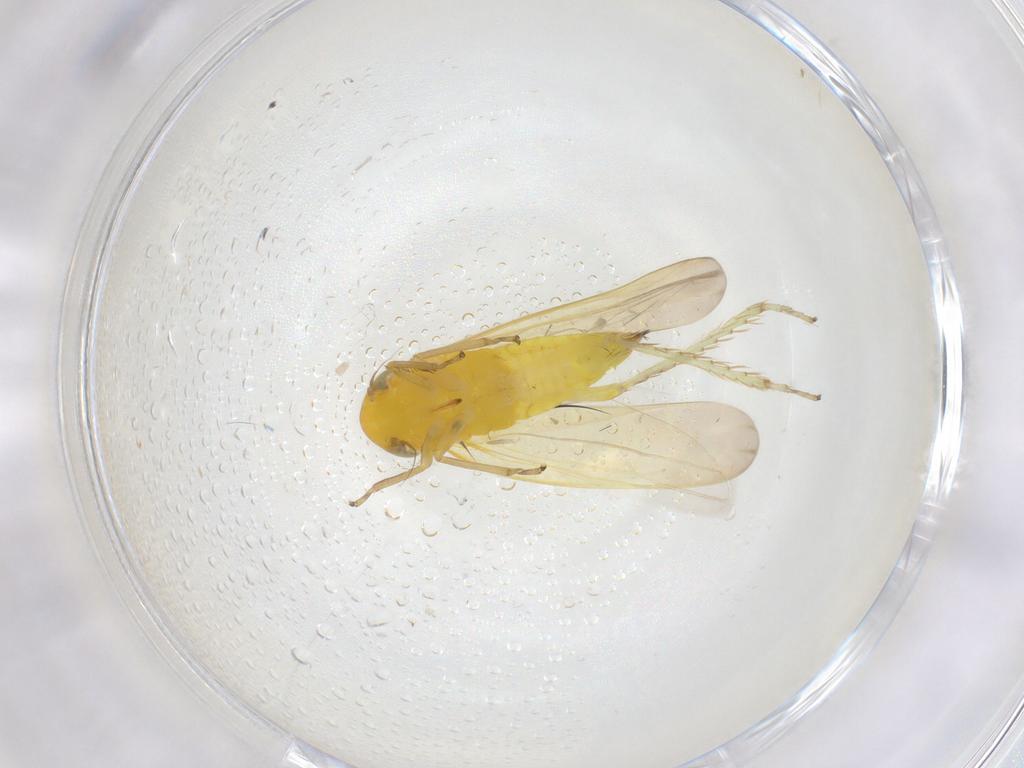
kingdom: Animalia
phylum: Arthropoda
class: Insecta
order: Hemiptera
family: Cicadellidae
